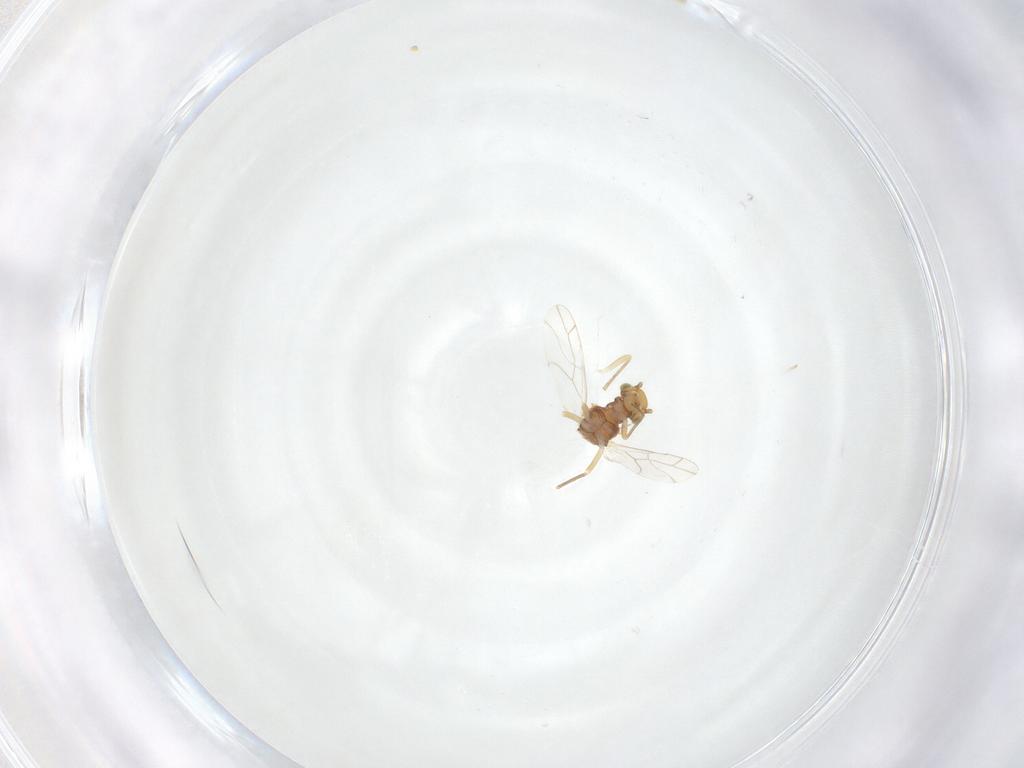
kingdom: Animalia
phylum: Arthropoda
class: Insecta
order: Psocodea
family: Lachesillidae
